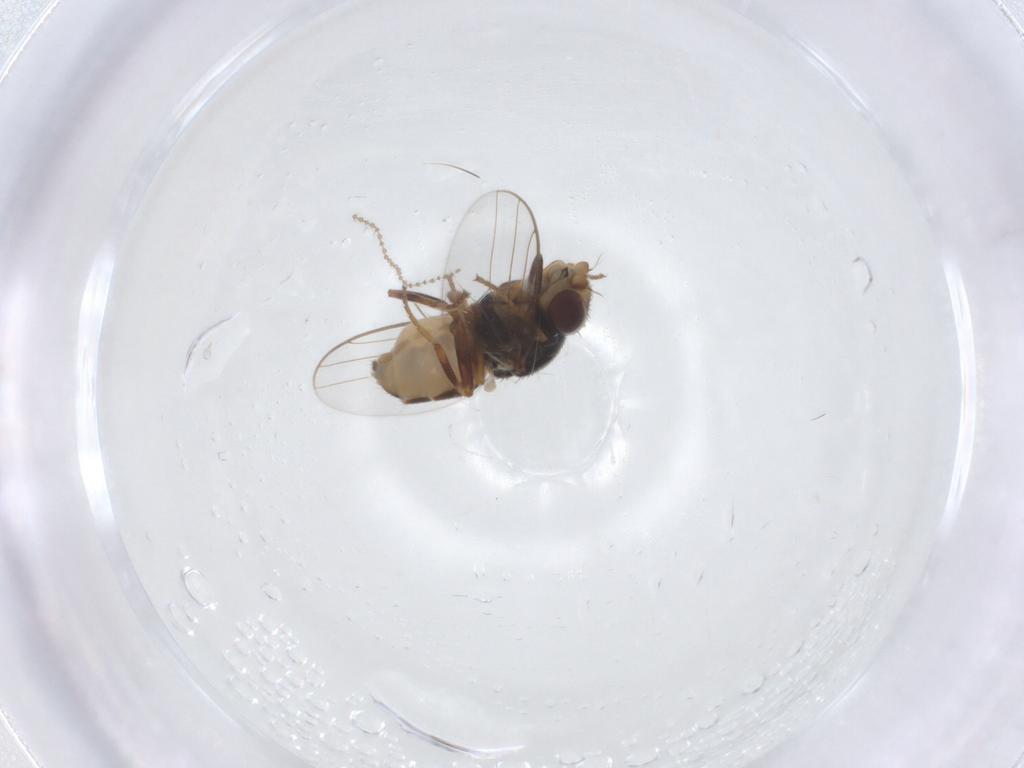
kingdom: Animalia
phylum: Arthropoda
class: Insecta
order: Diptera
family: Chloropidae
